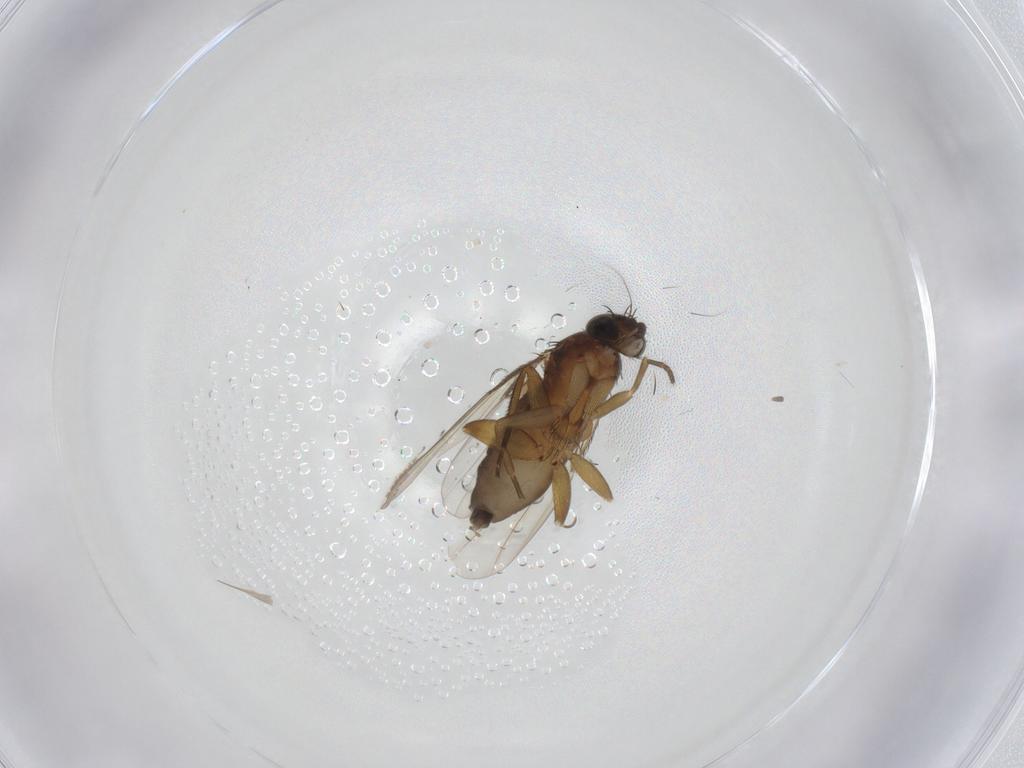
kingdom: Animalia
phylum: Arthropoda
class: Insecta
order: Diptera
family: Phoridae
